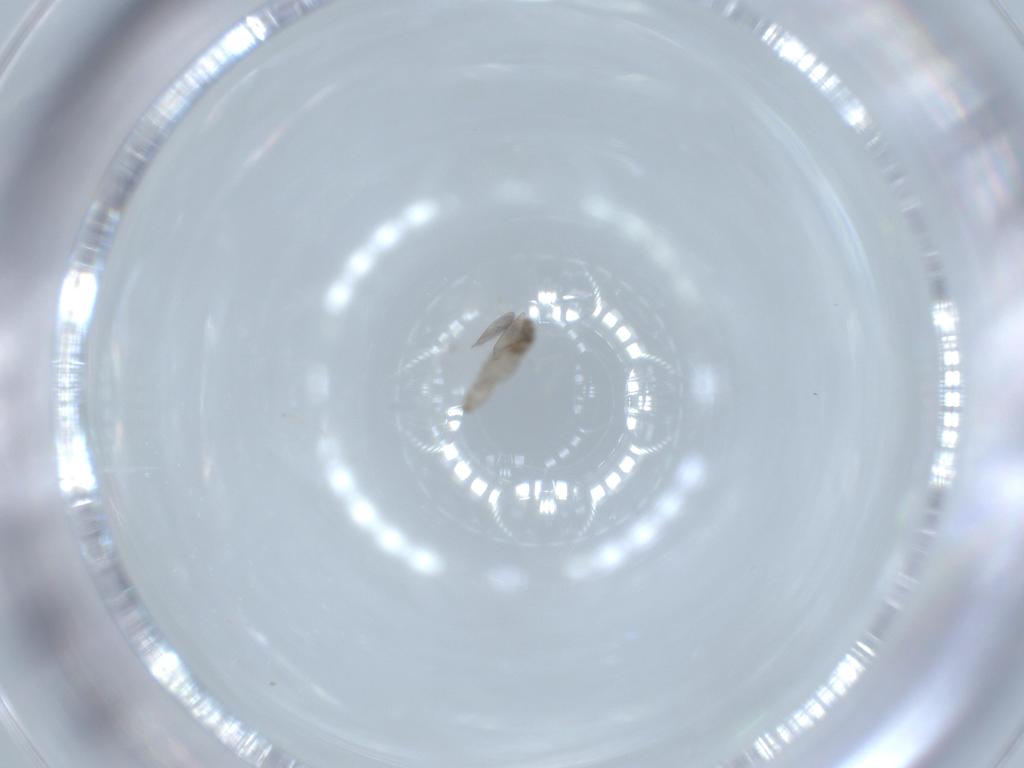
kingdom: Animalia
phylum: Arthropoda
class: Insecta
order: Diptera
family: Cecidomyiidae
